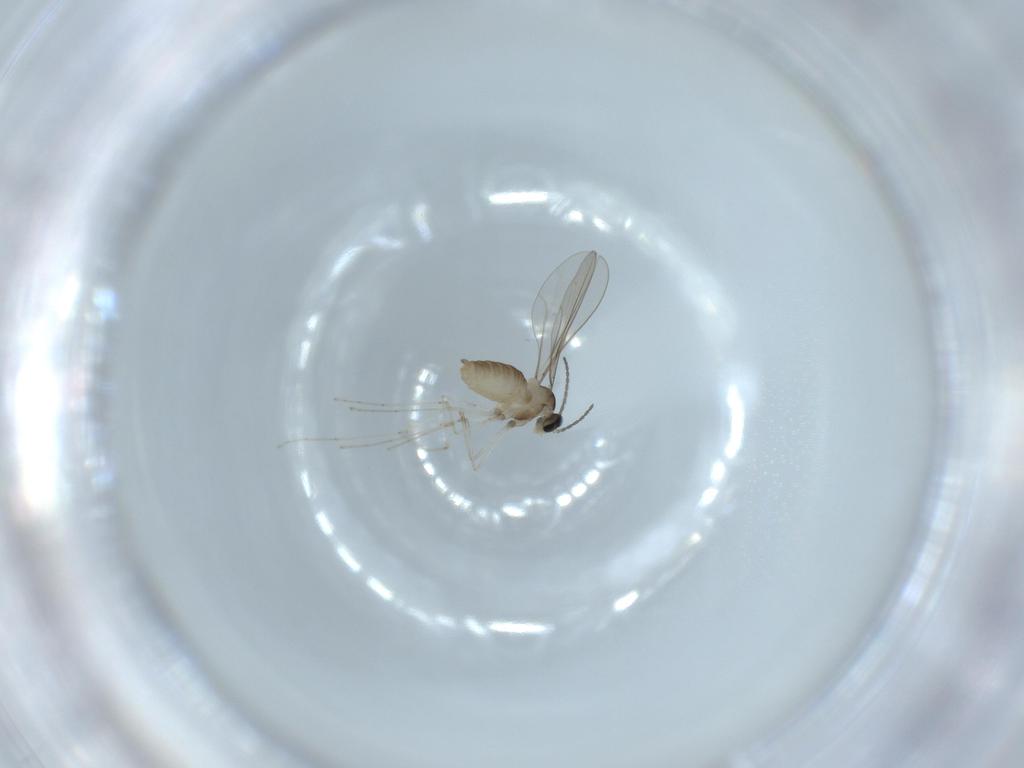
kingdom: Animalia
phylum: Arthropoda
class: Insecta
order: Diptera
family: Cecidomyiidae
